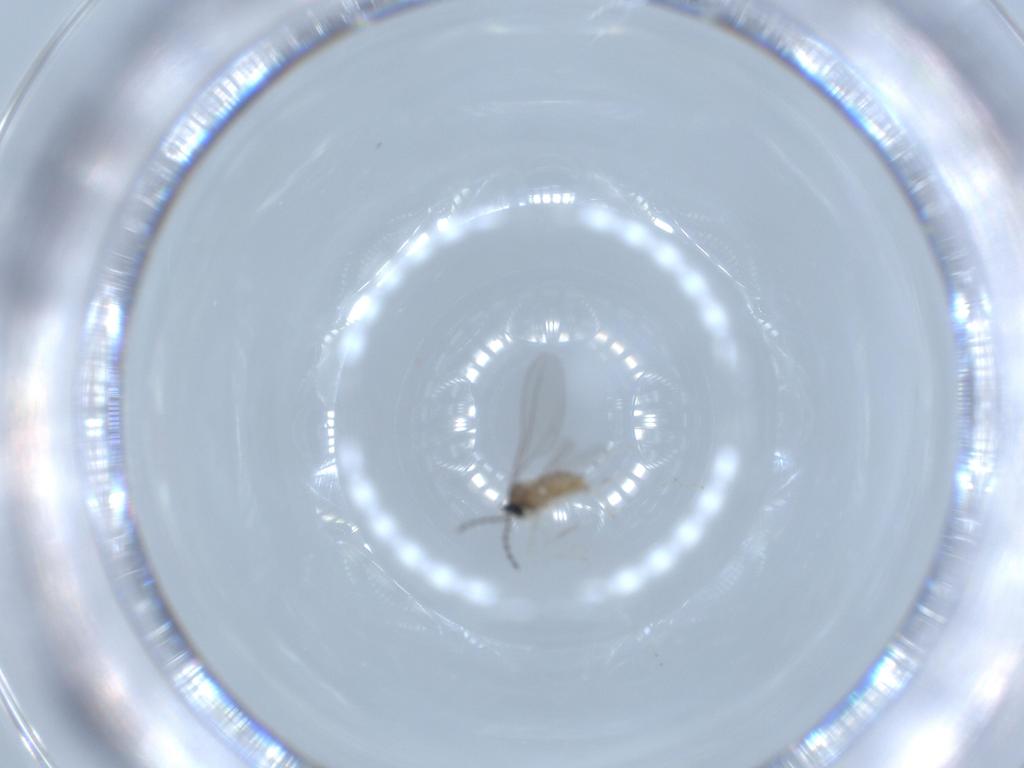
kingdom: Animalia
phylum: Arthropoda
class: Insecta
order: Diptera
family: Cecidomyiidae
